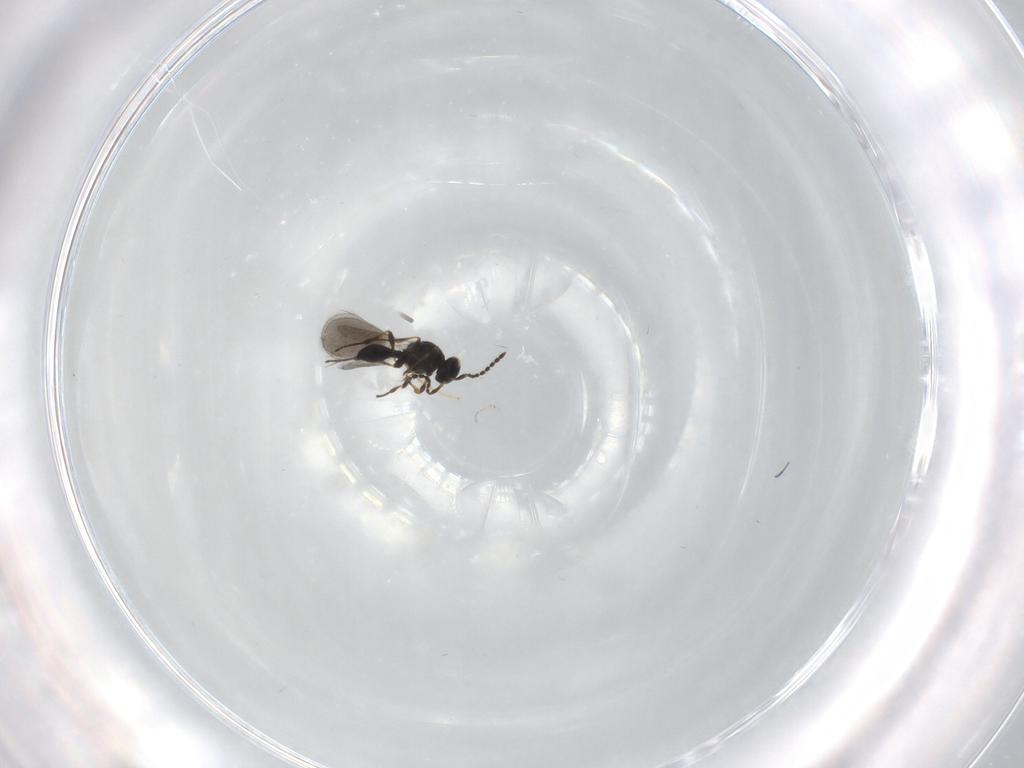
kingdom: Animalia
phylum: Arthropoda
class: Insecta
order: Hymenoptera
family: Platygastridae
